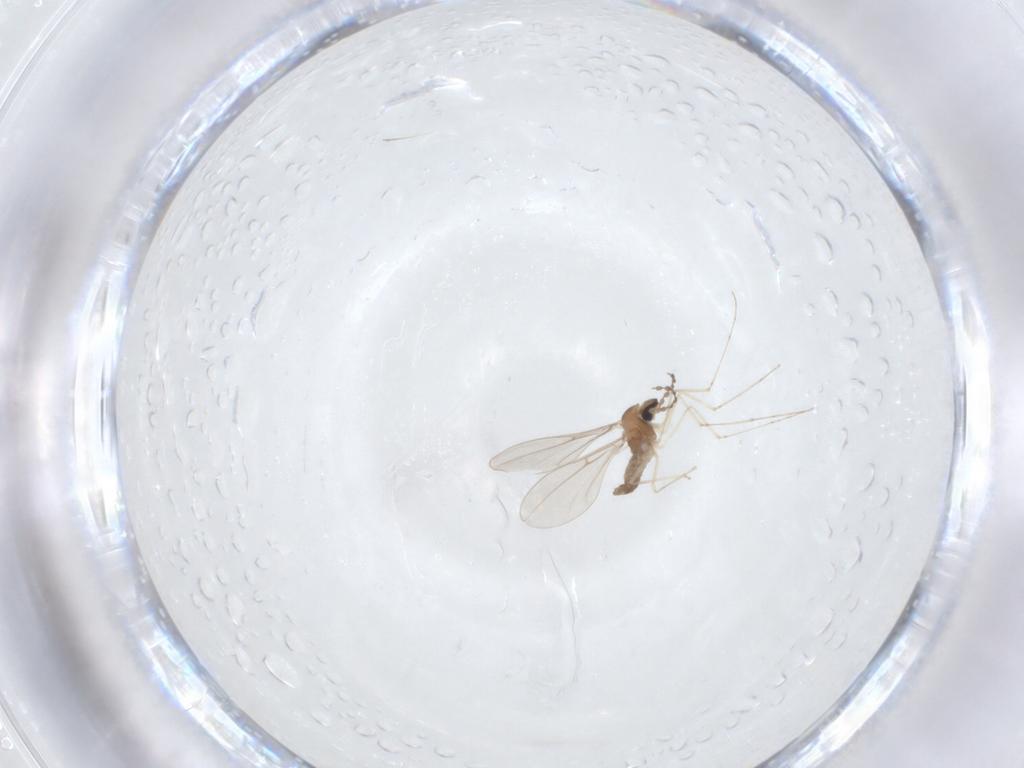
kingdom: Animalia
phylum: Arthropoda
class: Insecta
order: Diptera
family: Cecidomyiidae
